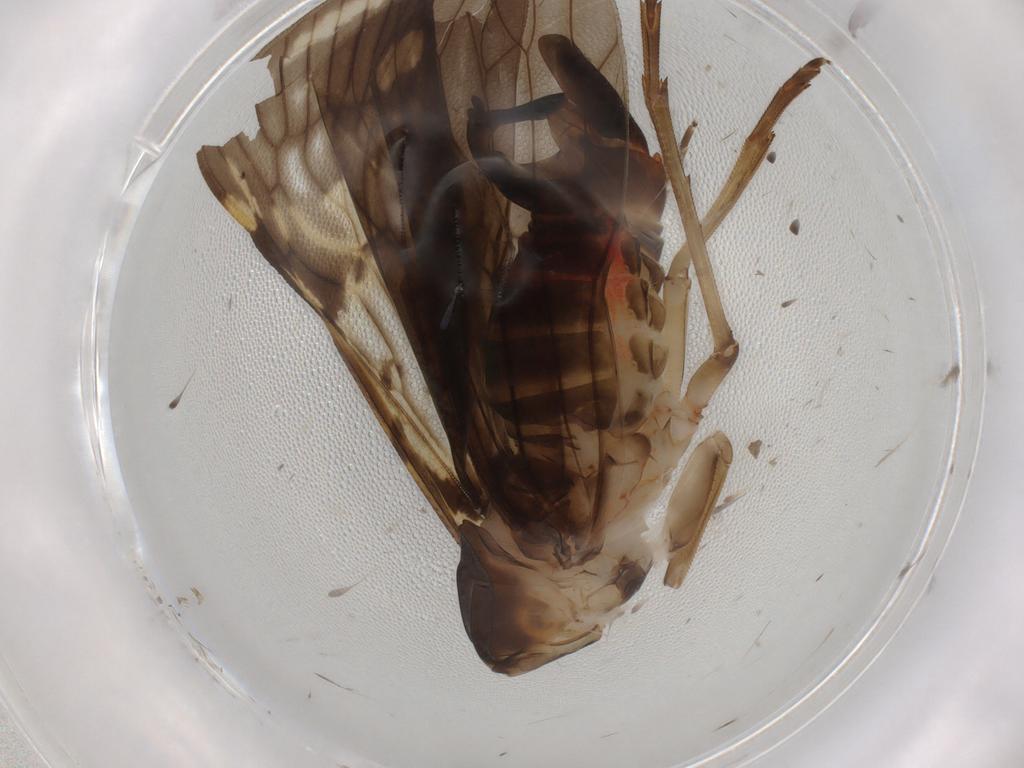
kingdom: Animalia
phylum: Arthropoda
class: Insecta
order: Hemiptera
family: Cixiidae
